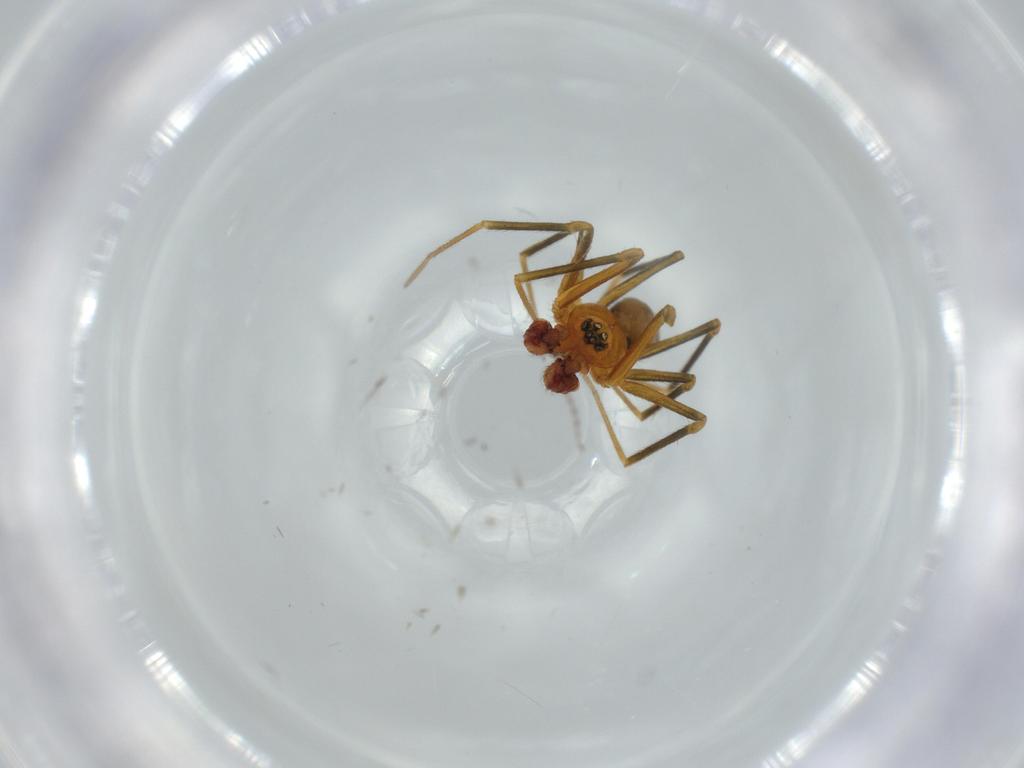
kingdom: Animalia
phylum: Arthropoda
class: Arachnida
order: Araneae
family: Linyphiidae
